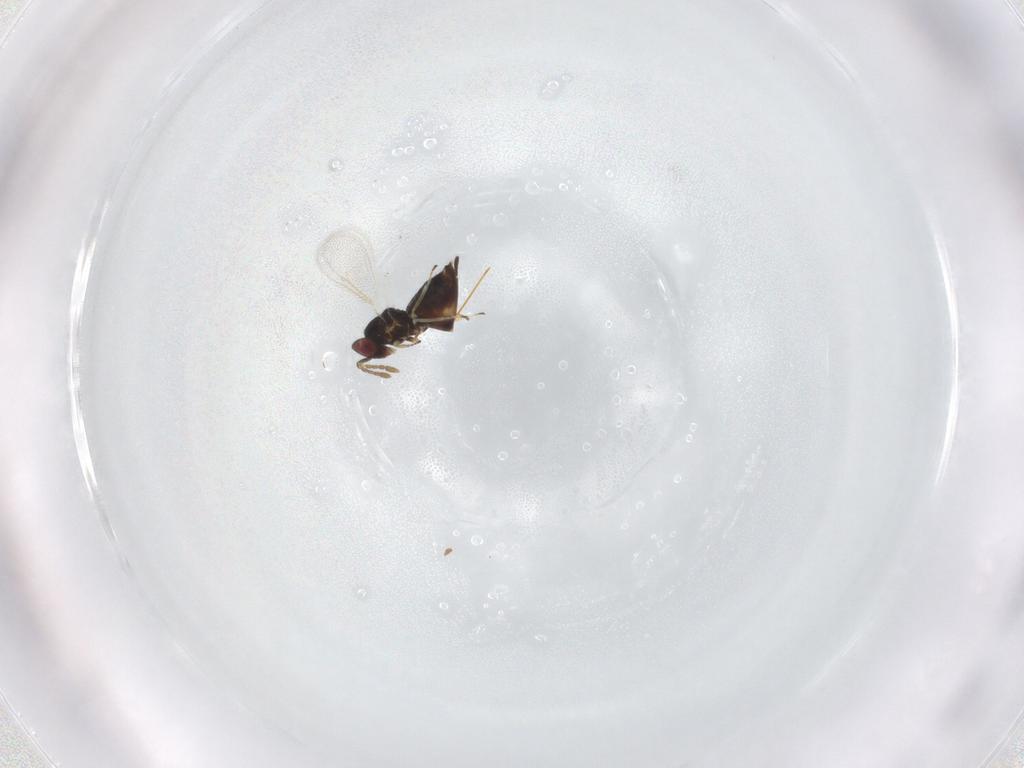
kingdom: Animalia
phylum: Arthropoda
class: Insecta
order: Hymenoptera
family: Eulophidae
